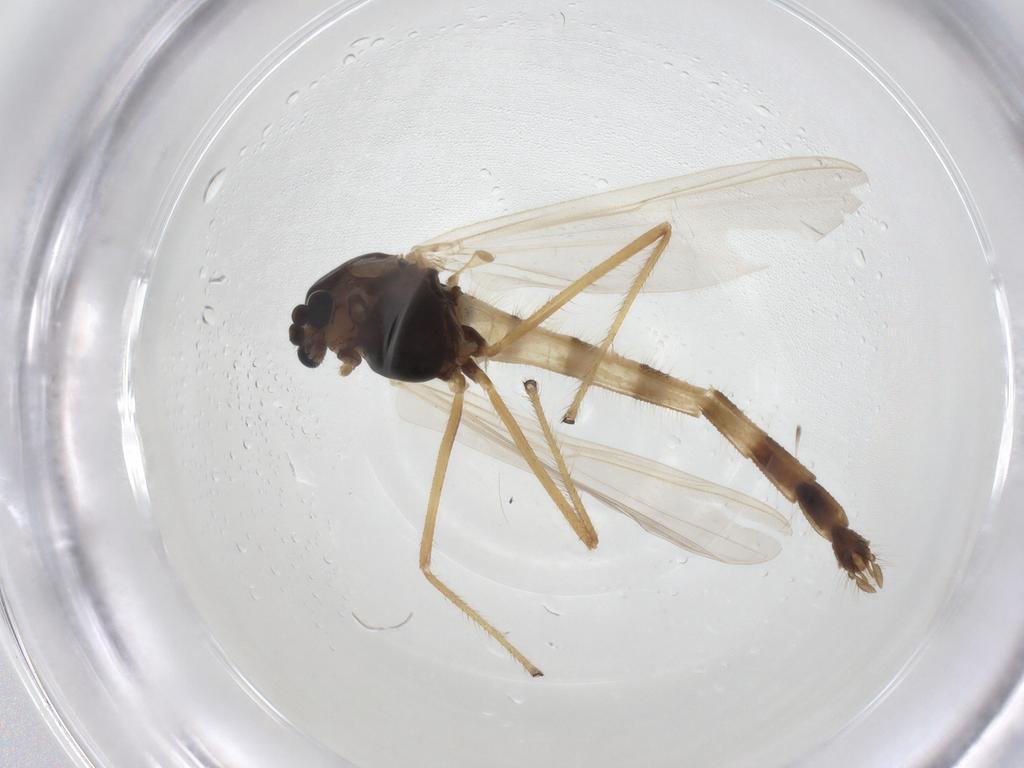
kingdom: Animalia
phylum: Arthropoda
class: Insecta
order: Diptera
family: Chironomidae
